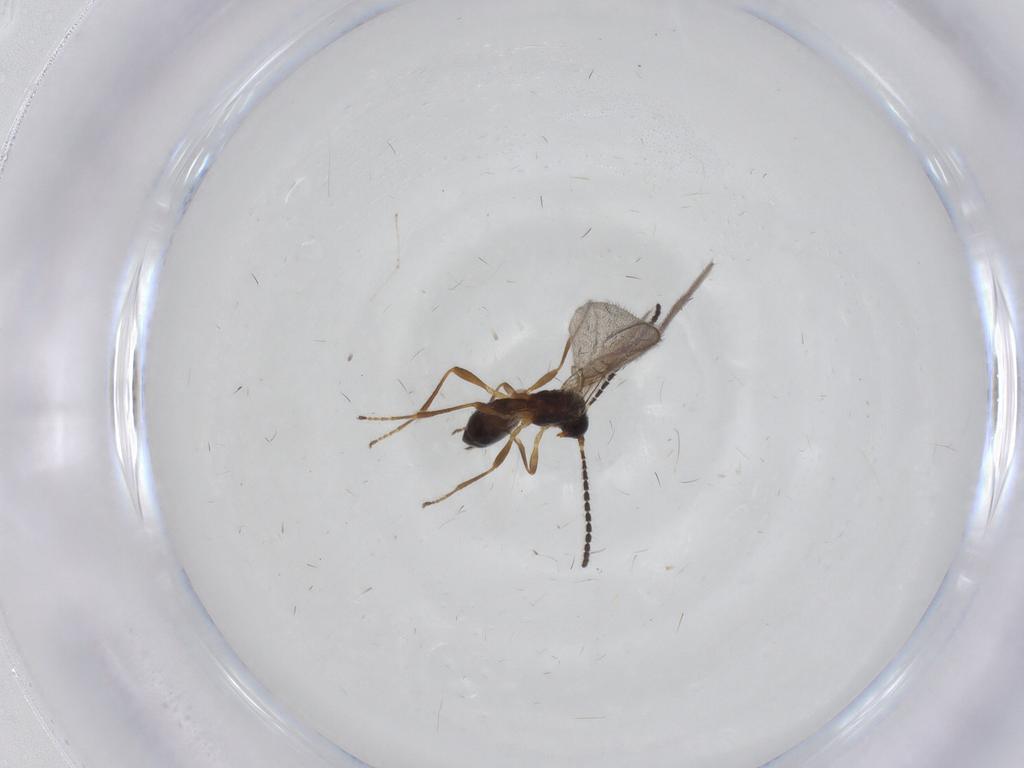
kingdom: Animalia
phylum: Arthropoda
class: Insecta
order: Hymenoptera
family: Braconidae
